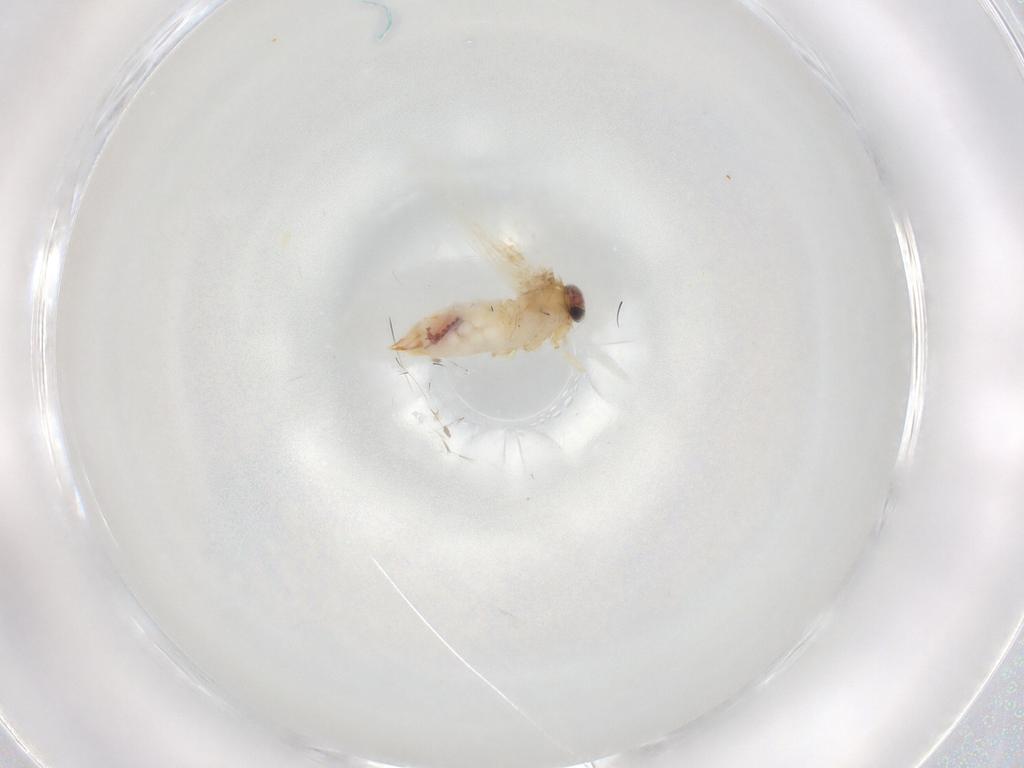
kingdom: Animalia
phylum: Arthropoda
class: Insecta
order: Lepidoptera
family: Nepticulidae
